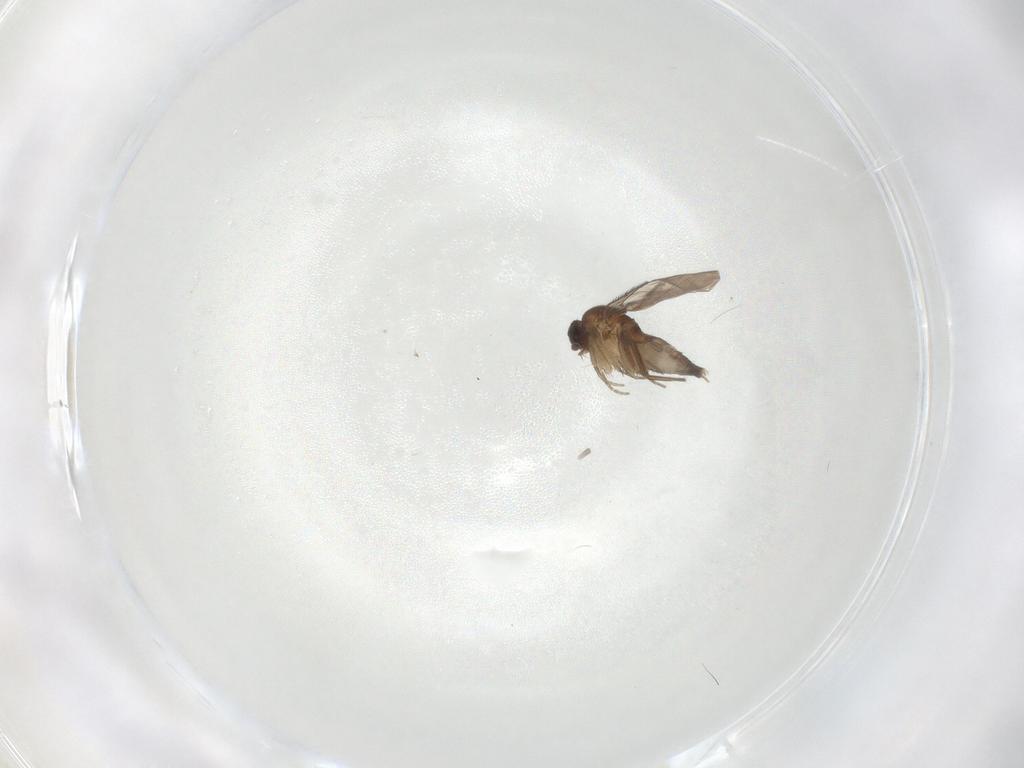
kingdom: Animalia
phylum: Arthropoda
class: Insecta
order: Diptera
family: Phoridae
